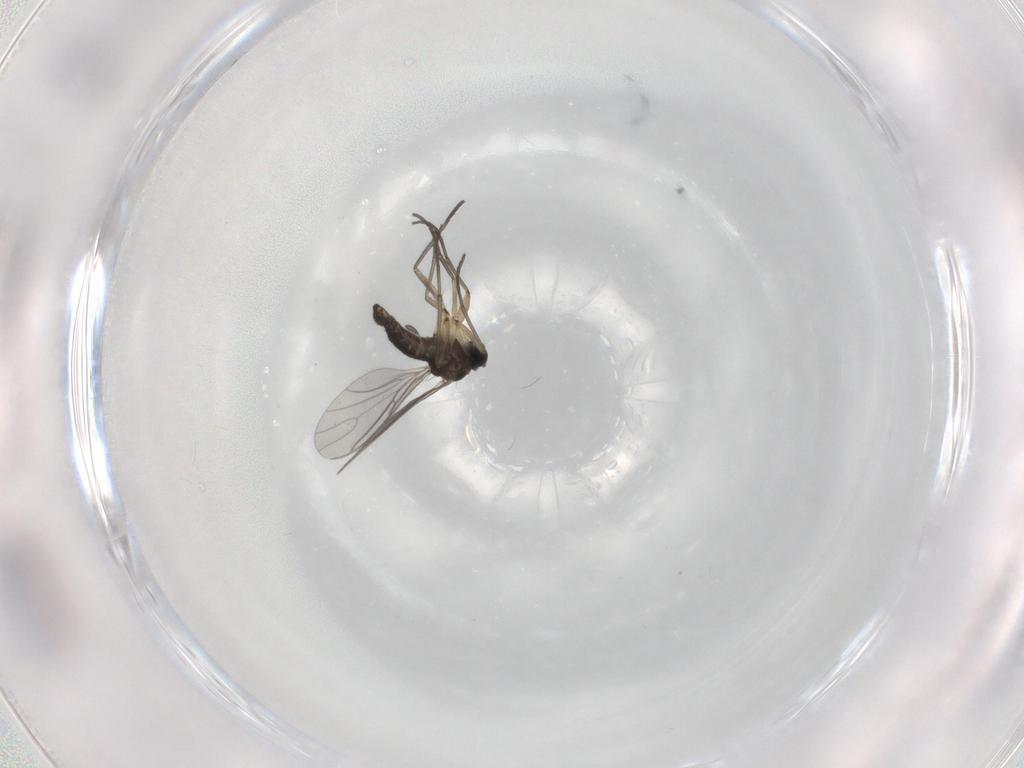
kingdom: Animalia
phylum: Arthropoda
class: Insecta
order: Diptera
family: Sciaridae
